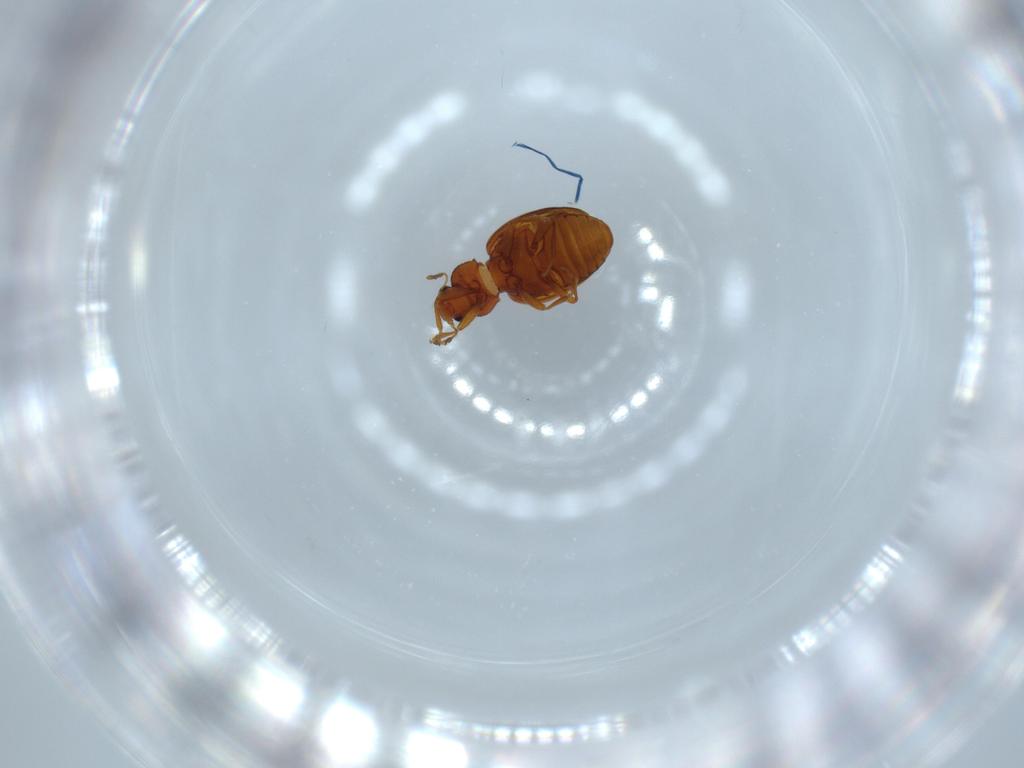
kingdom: Animalia
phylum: Arthropoda
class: Insecta
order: Coleoptera
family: Latridiidae
